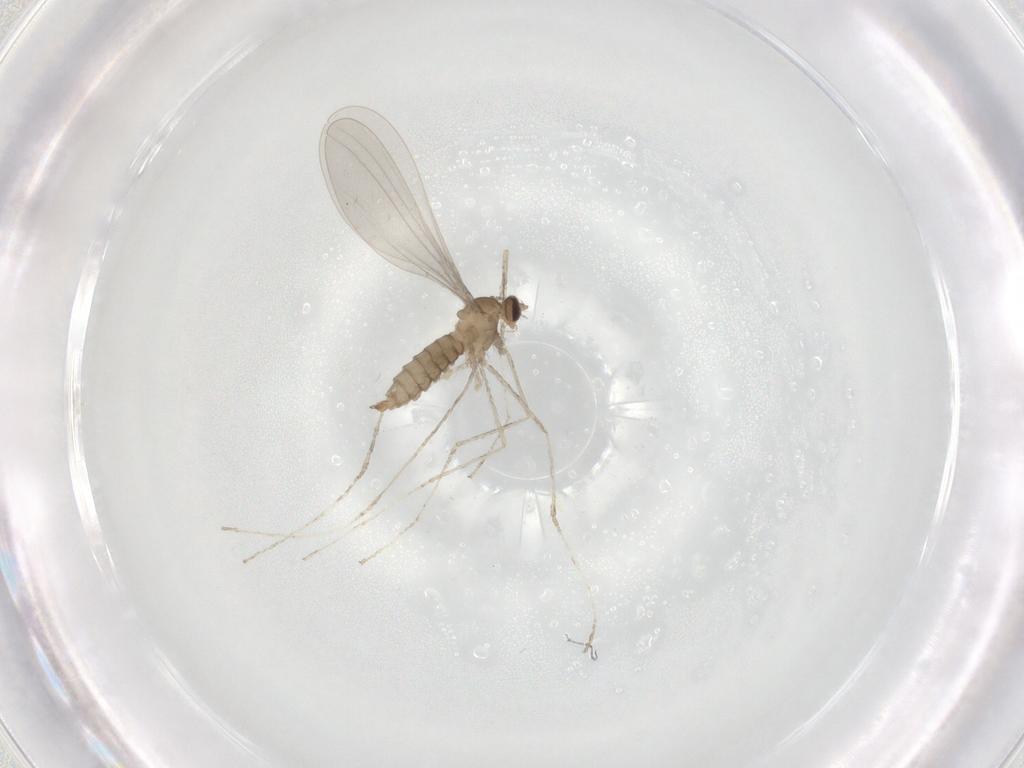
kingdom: Animalia
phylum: Arthropoda
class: Insecta
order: Diptera
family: Cecidomyiidae
